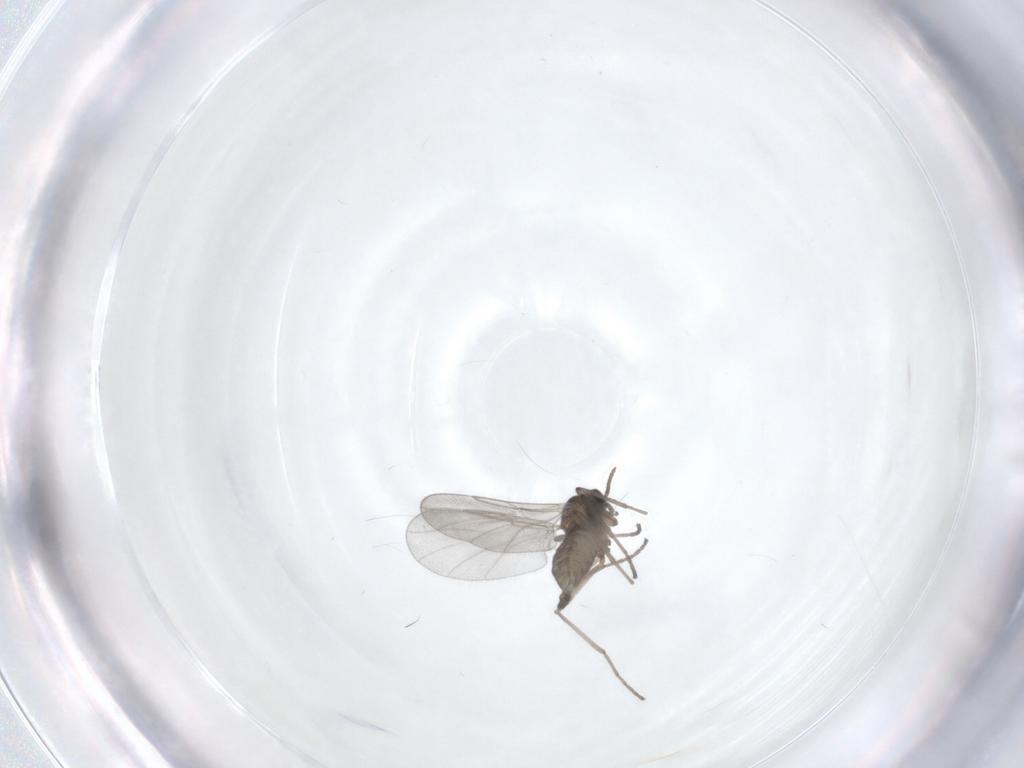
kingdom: Animalia
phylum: Arthropoda
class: Insecta
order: Diptera
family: Cecidomyiidae
